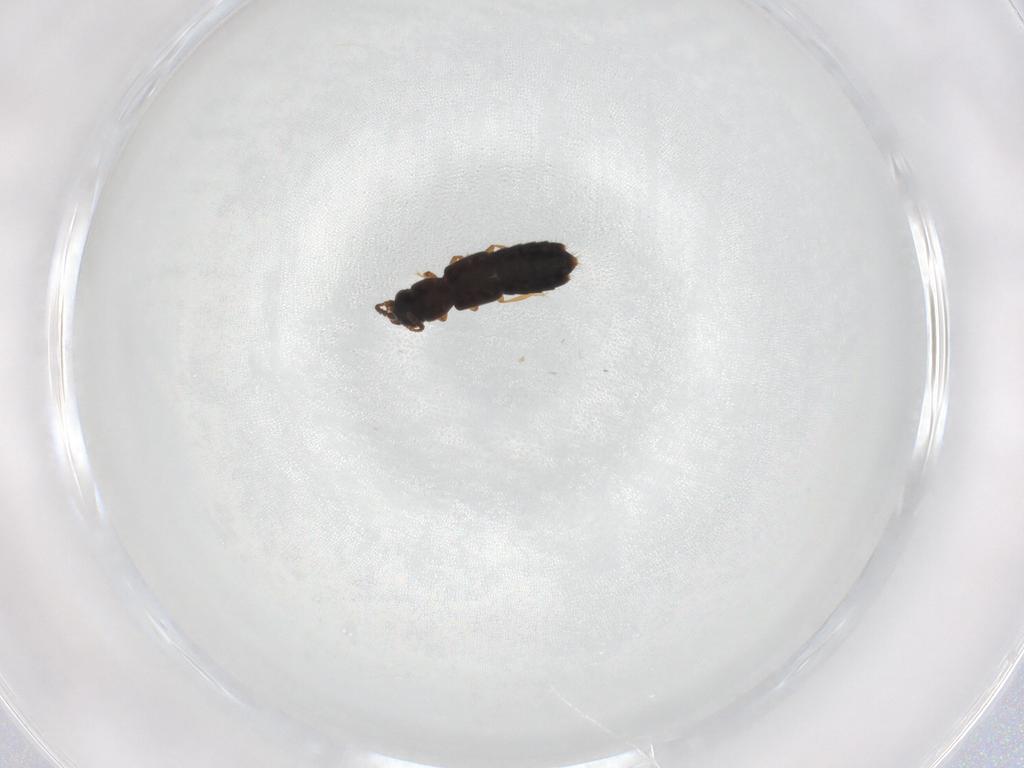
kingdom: Animalia
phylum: Arthropoda
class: Insecta
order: Coleoptera
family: Staphylinidae
